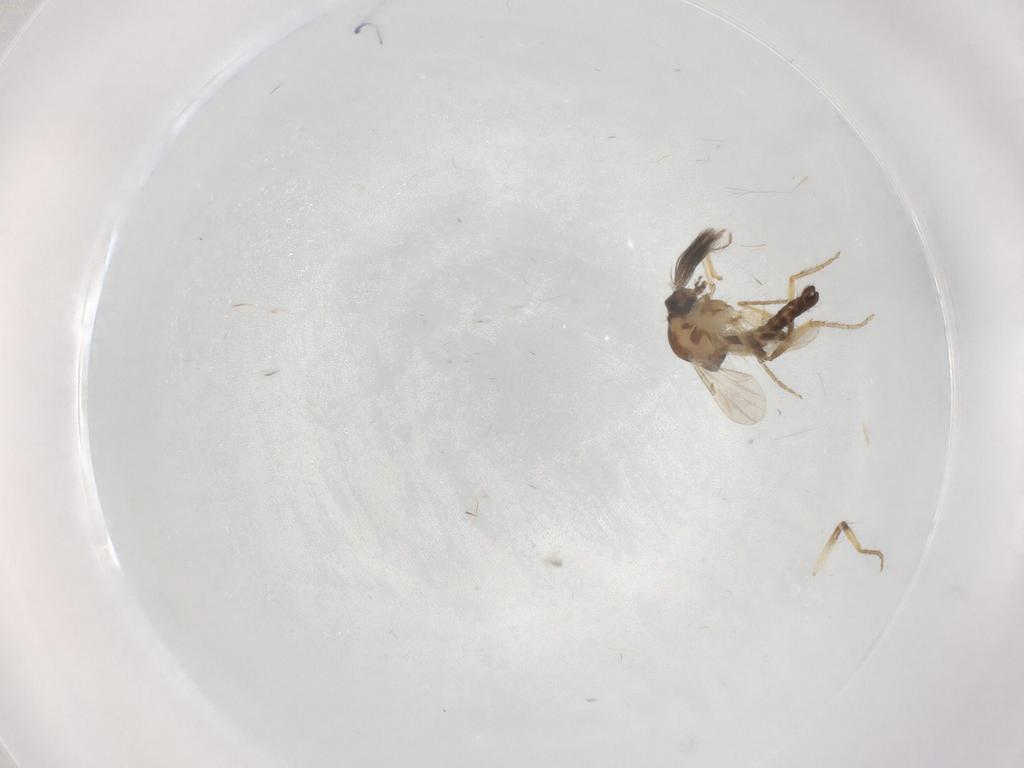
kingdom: Animalia
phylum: Arthropoda
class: Insecta
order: Diptera
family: Ceratopogonidae
